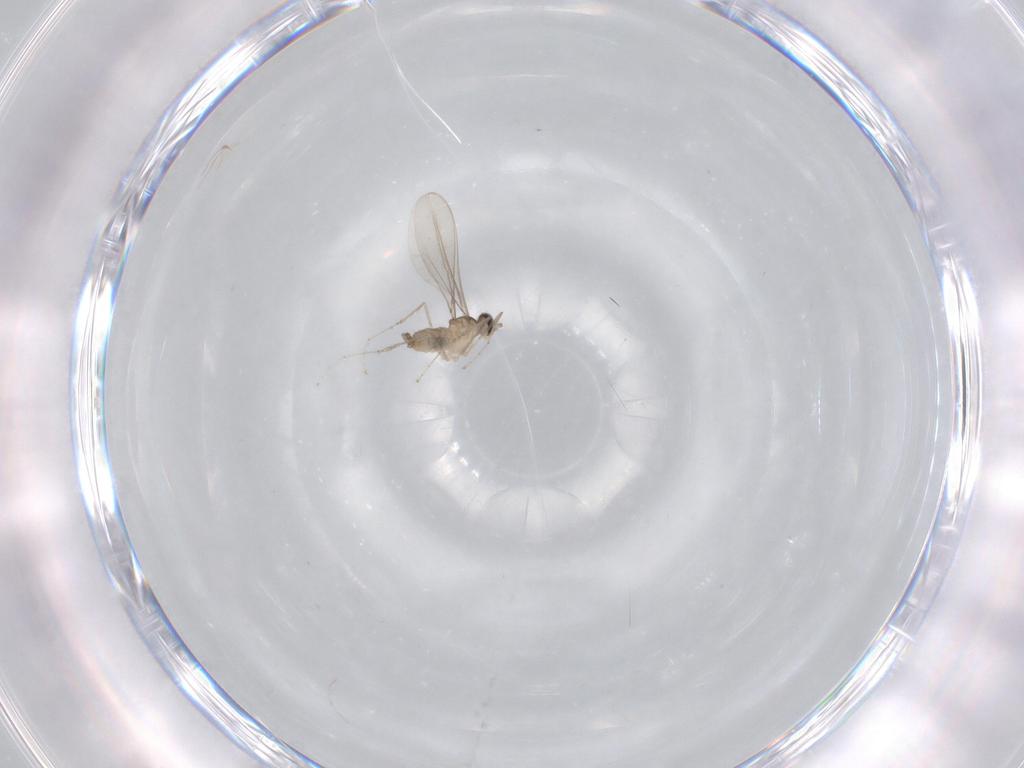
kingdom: Animalia
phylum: Arthropoda
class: Insecta
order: Diptera
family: Cecidomyiidae
